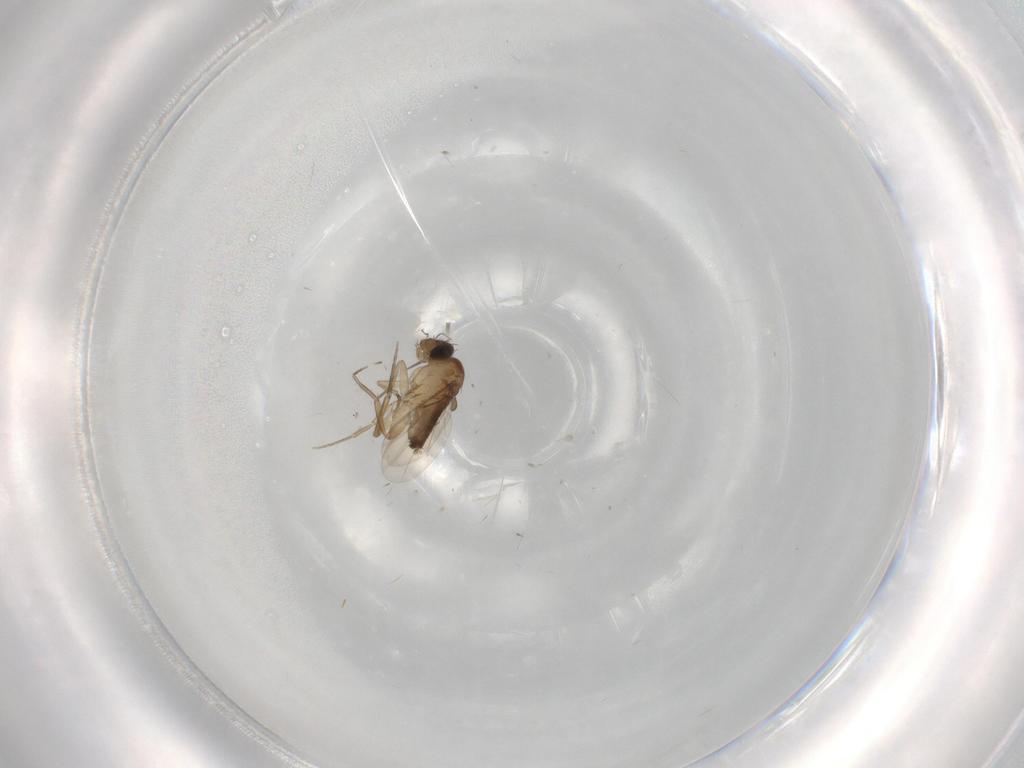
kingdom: Animalia
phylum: Arthropoda
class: Insecta
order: Diptera
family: Phoridae
